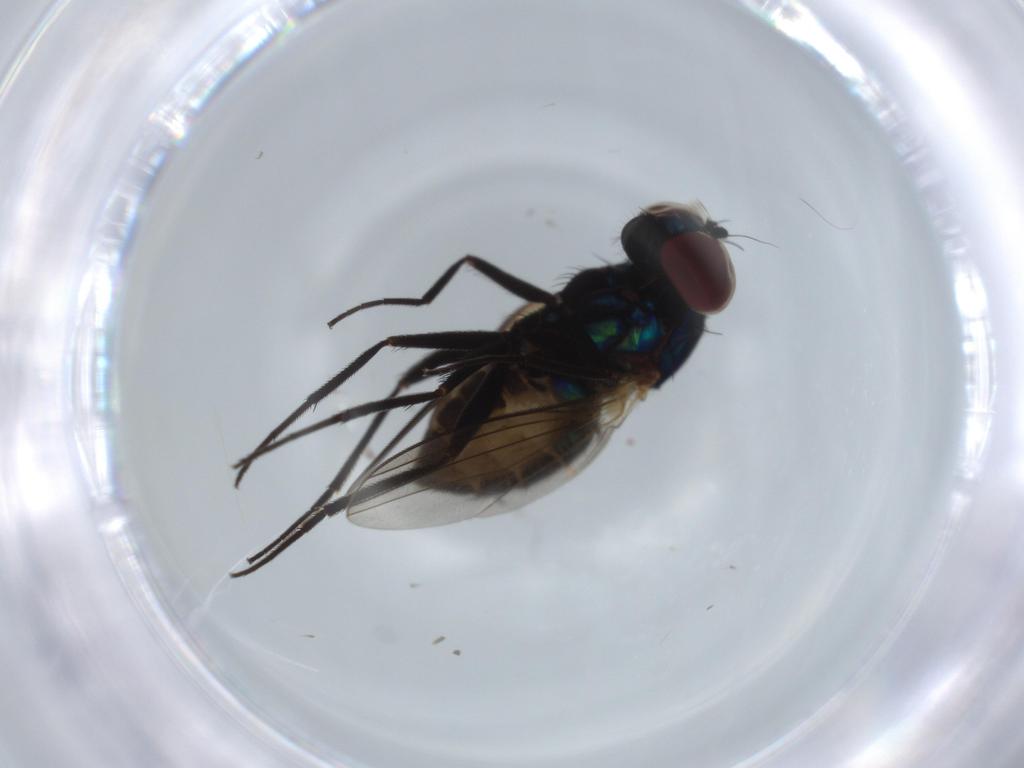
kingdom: Animalia
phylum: Arthropoda
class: Insecta
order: Diptera
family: Dolichopodidae
